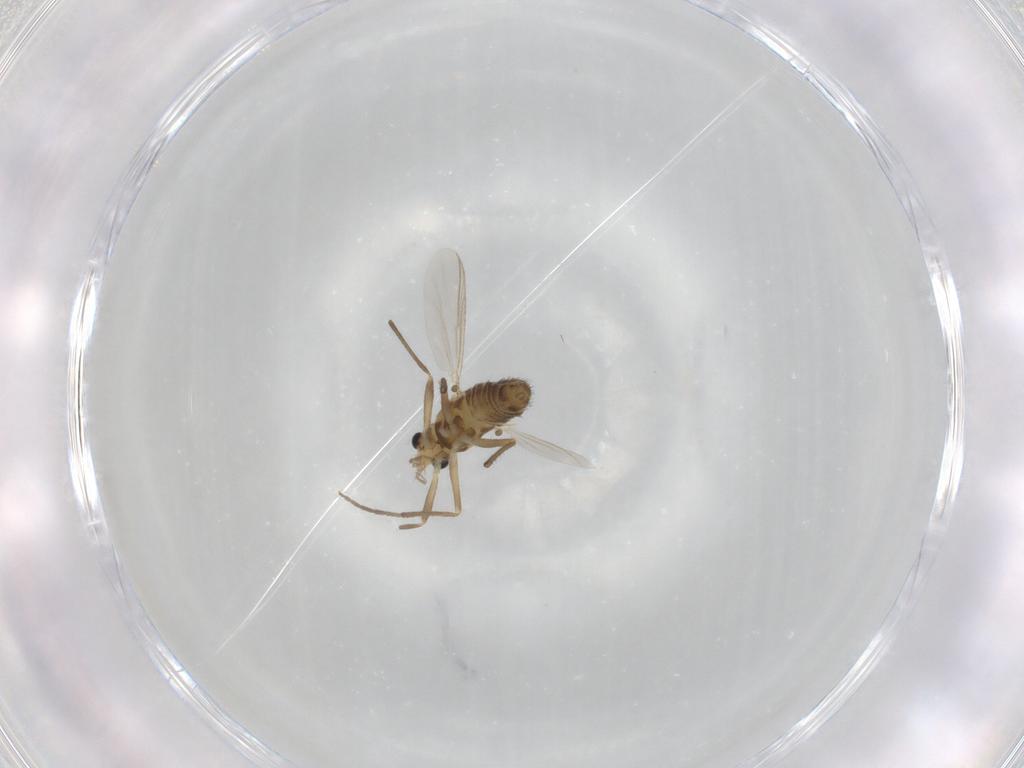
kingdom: Animalia
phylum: Arthropoda
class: Insecta
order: Diptera
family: Chironomidae
